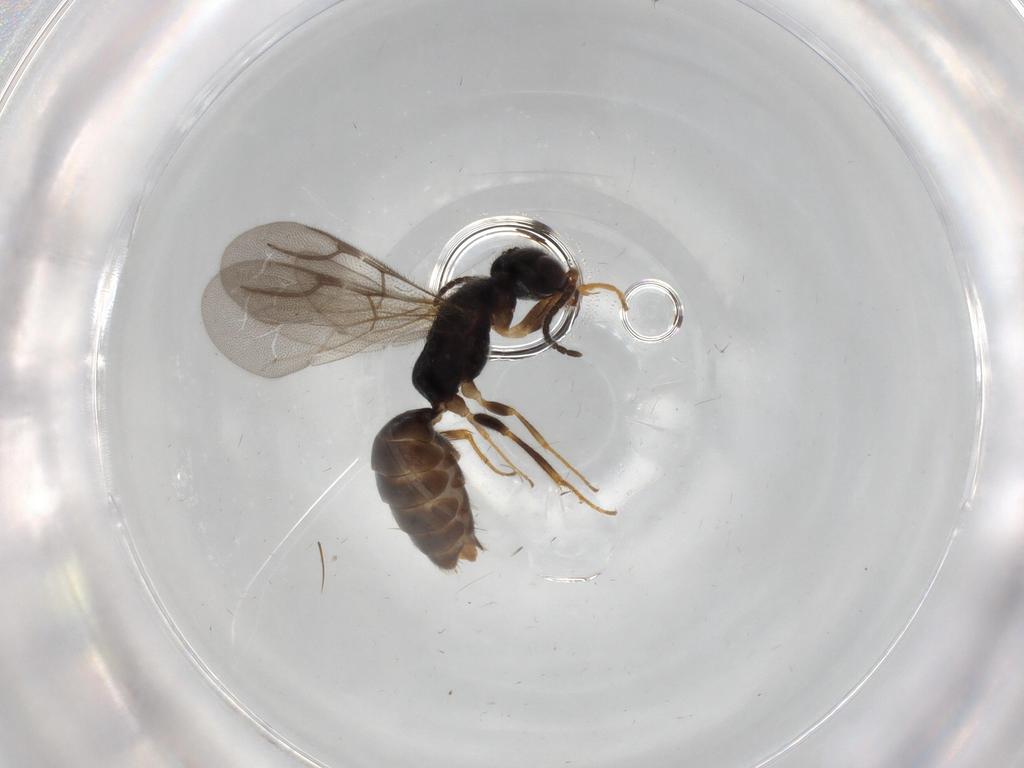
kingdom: Animalia
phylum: Arthropoda
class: Insecta
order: Hymenoptera
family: Bethylidae
